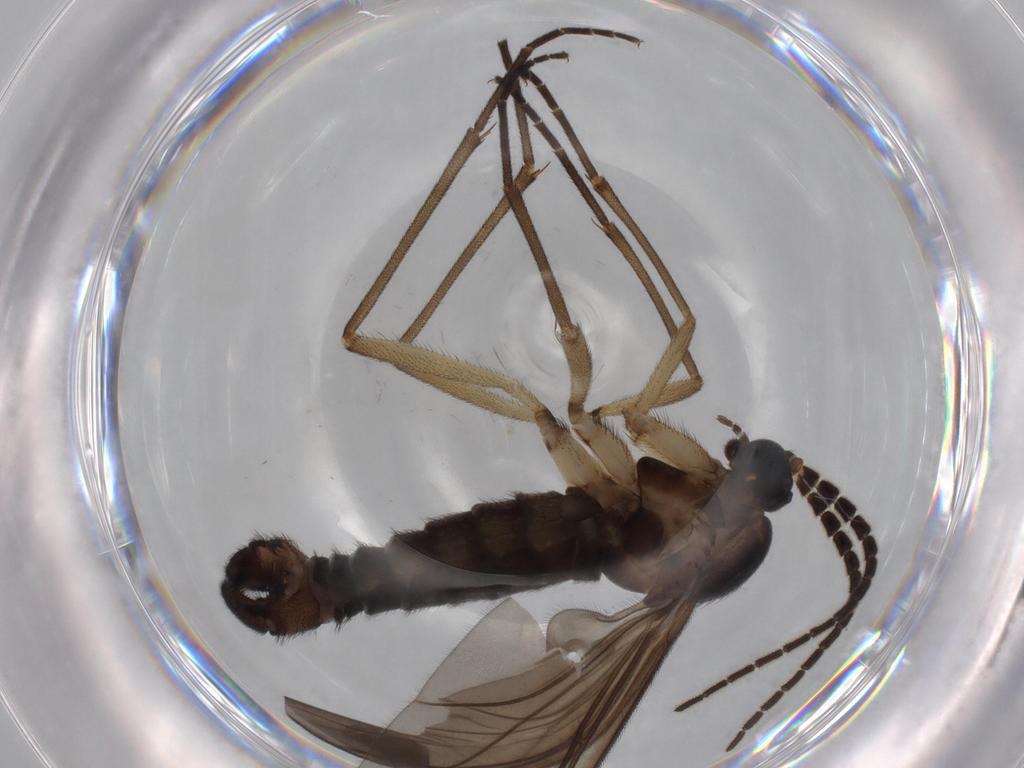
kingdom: Animalia
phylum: Arthropoda
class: Insecta
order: Diptera
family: Phoridae
